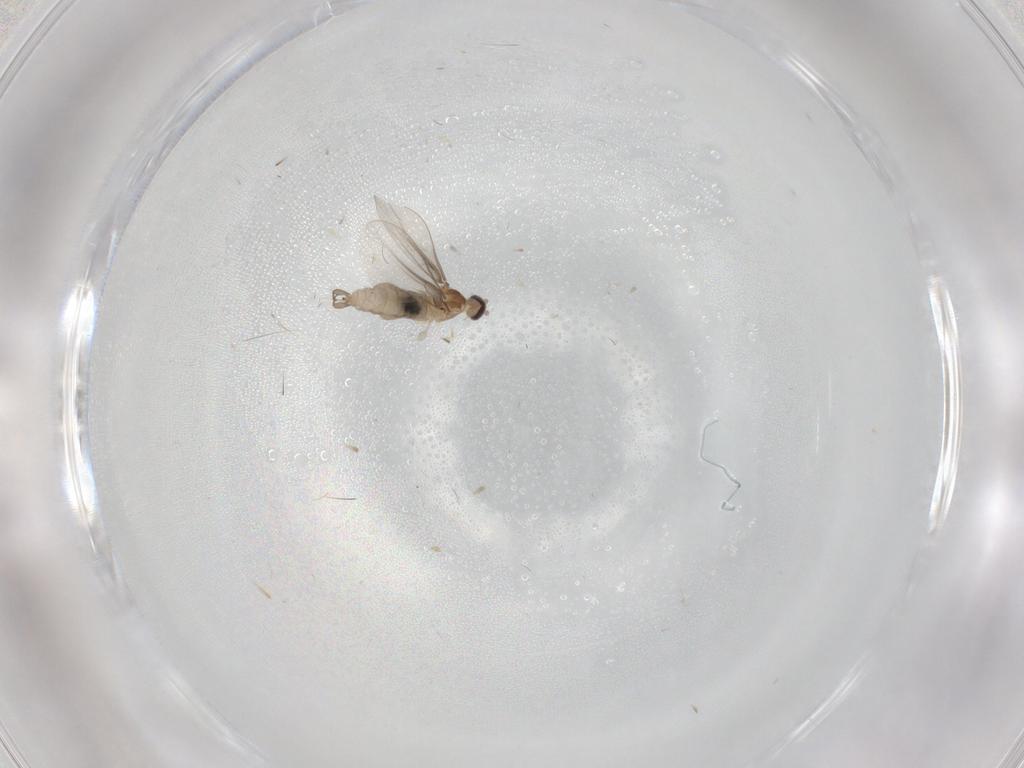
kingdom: Animalia
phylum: Arthropoda
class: Insecta
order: Diptera
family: Cecidomyiidae
